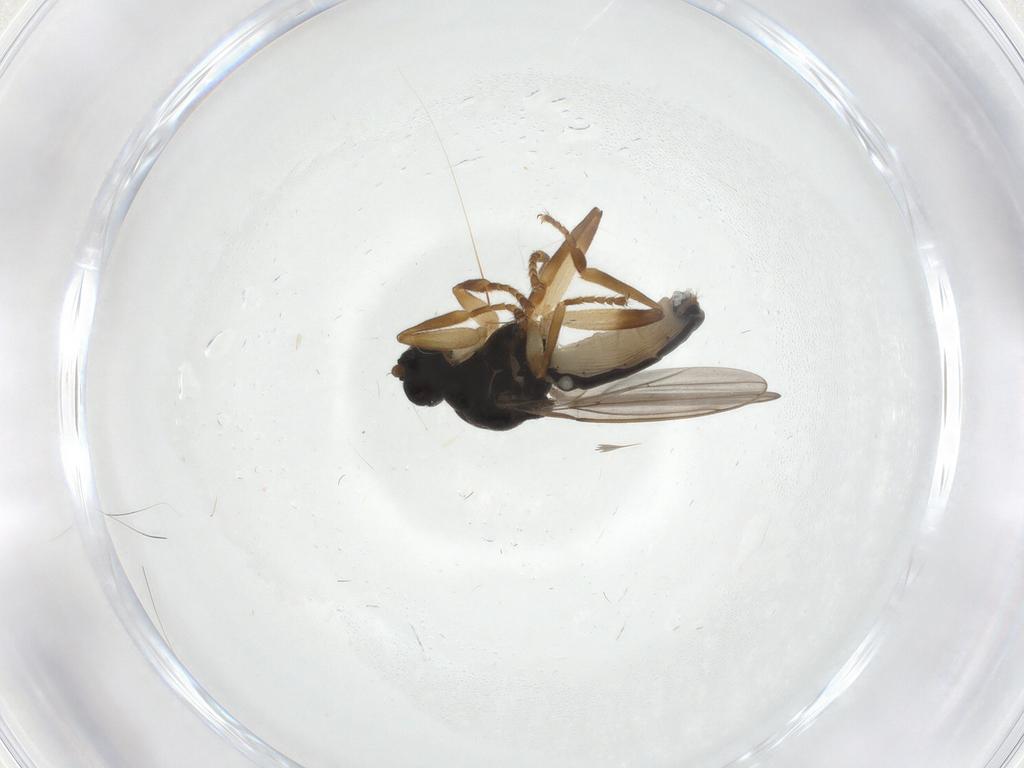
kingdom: Animalia
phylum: Arthropoda
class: Insecta
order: Diptera
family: Sphaeroceridae
